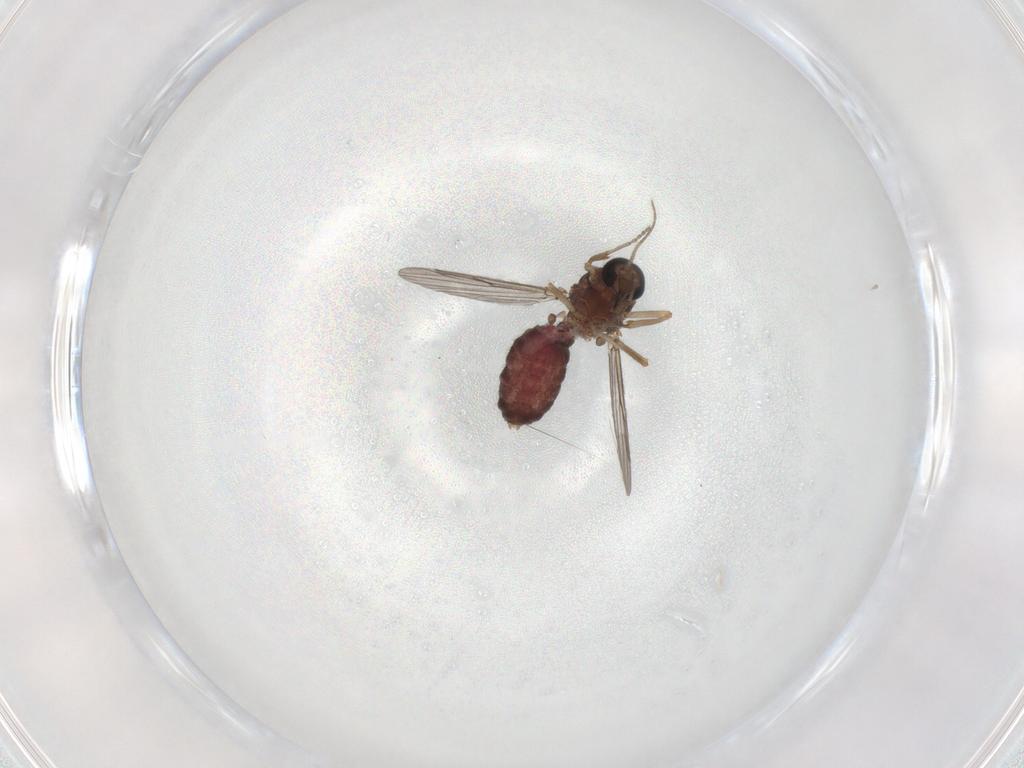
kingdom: Animalia
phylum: Arthropoda
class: Insecta
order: Diptera
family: Ceratopogonidae
